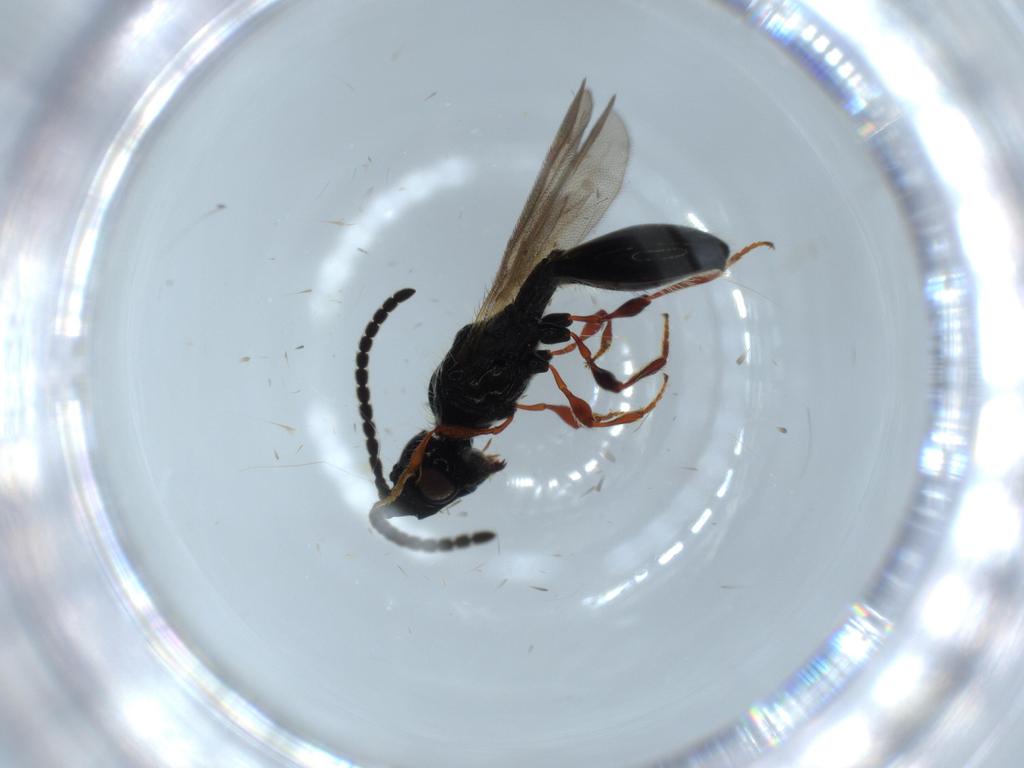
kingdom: Animalia
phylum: Arthropoda
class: Insecta
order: Hymenoptera
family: Diapriidae
